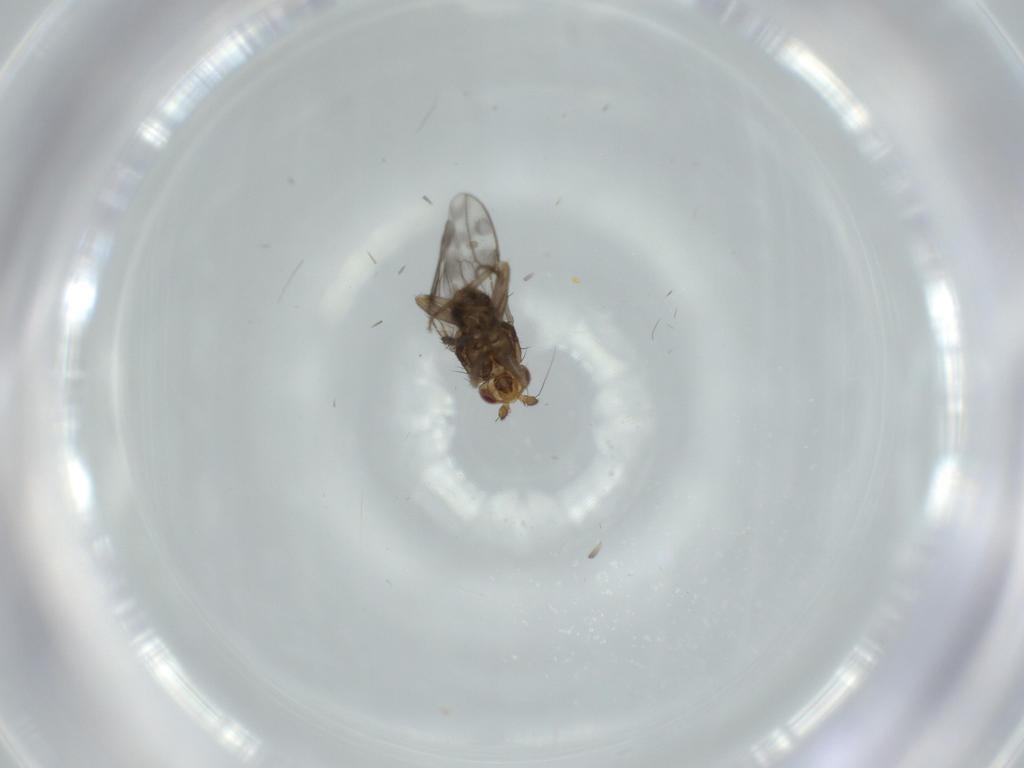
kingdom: Animalia
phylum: Arthropoda
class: Insecta
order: Diptera
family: Sphaeroceridae
